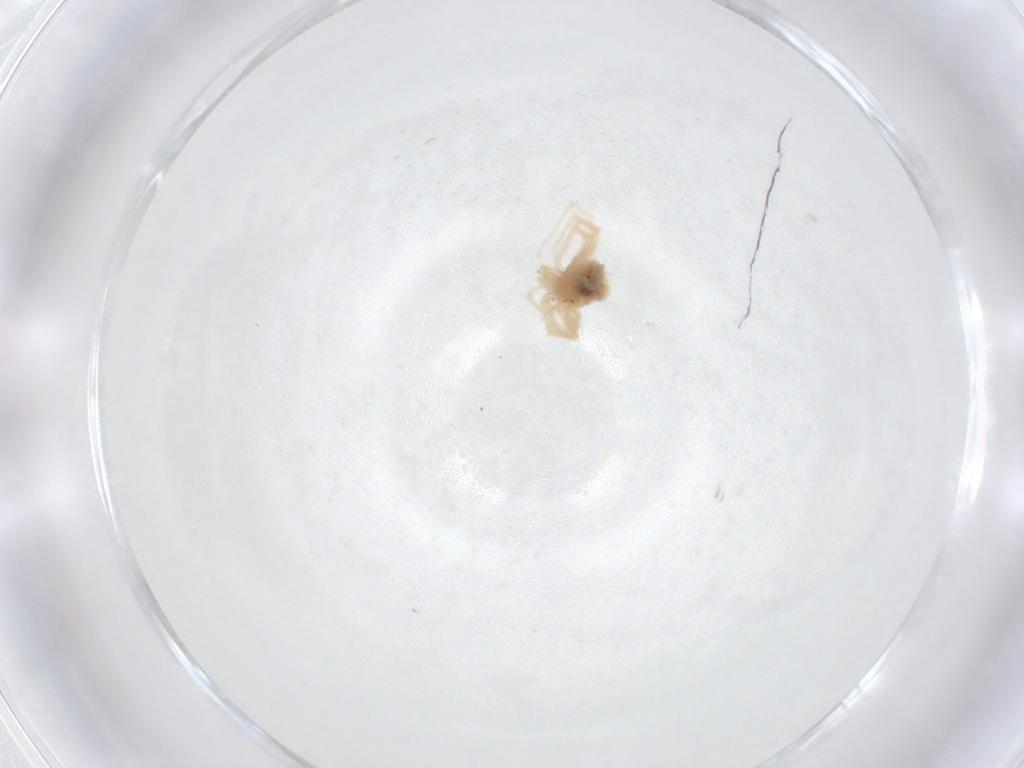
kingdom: Animalia
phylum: Arthropoda
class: Arachnida
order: Trombidiformes
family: Anystidae
